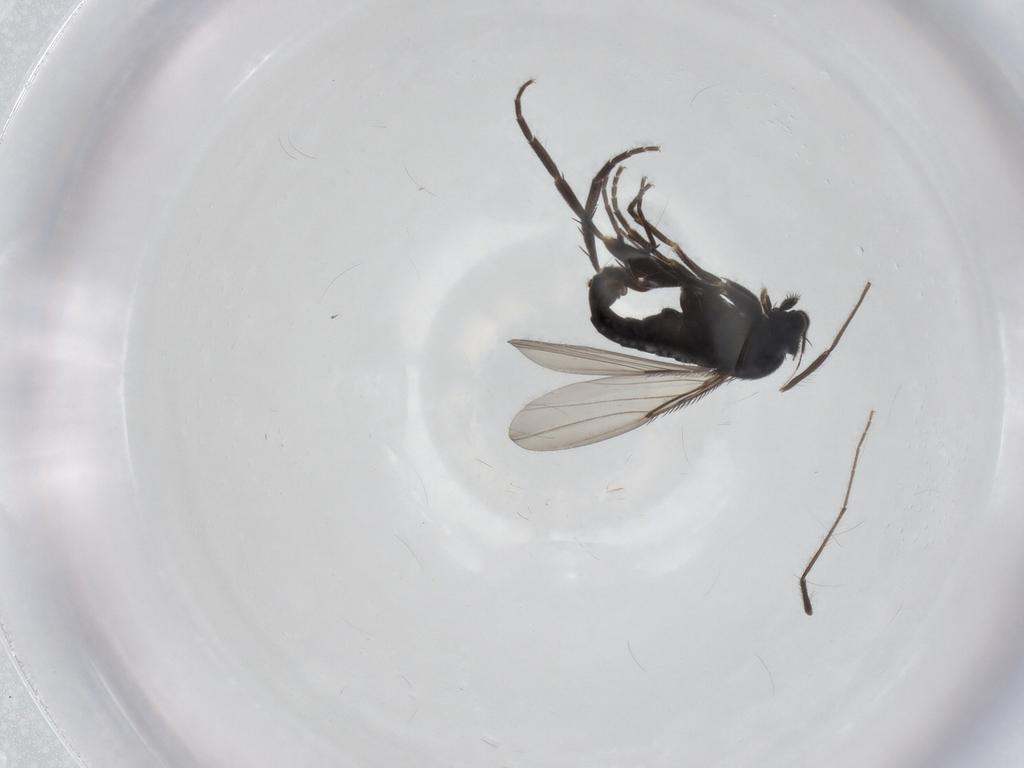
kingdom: Animalia
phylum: Arthropoda
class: Insecta
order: Diptera
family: Phoridae
